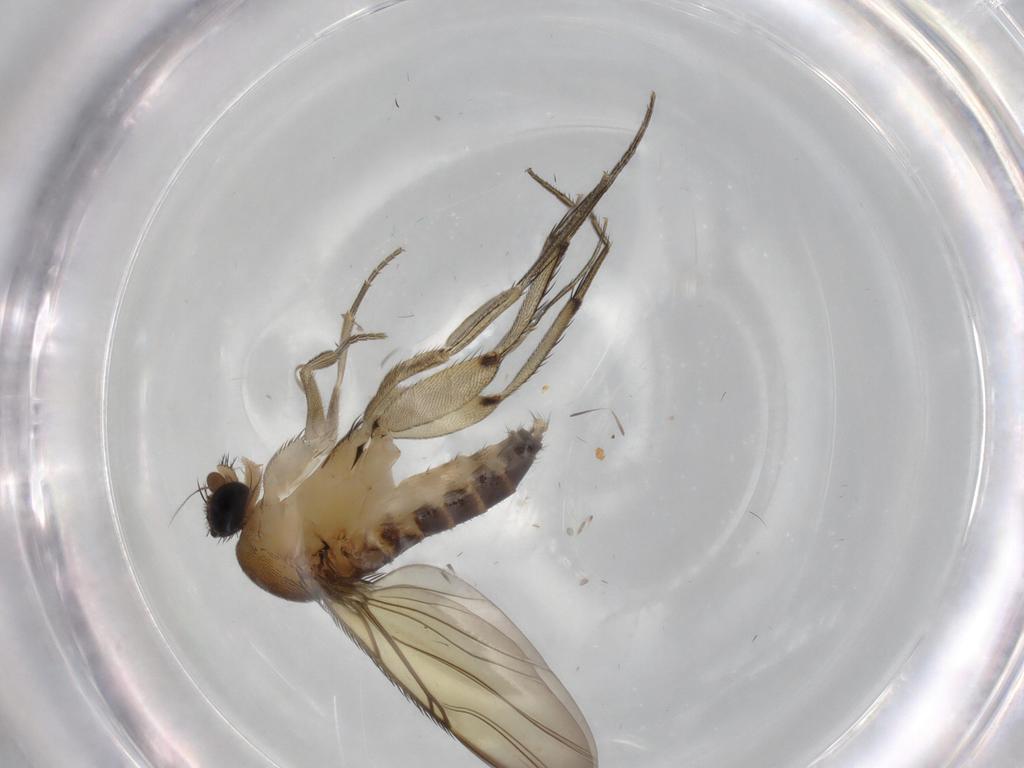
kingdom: Animalia
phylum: Arthropoda
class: Insecta
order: Diptera
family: Phoridae
